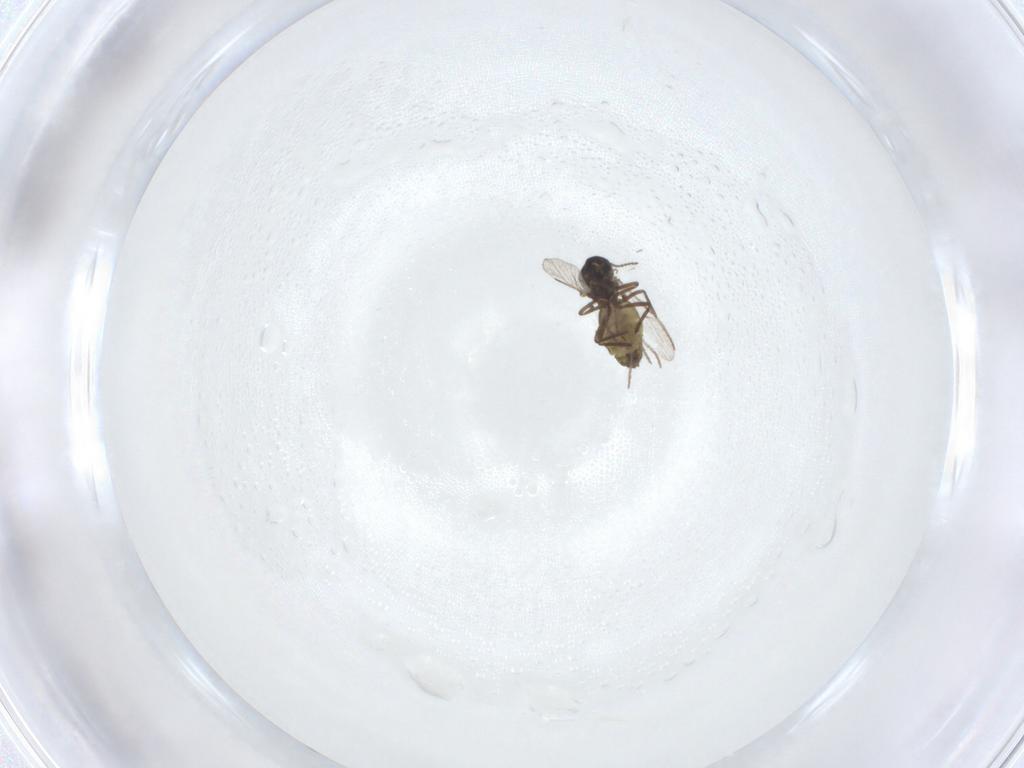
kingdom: Animalia
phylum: Arthropoda
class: Insecta
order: Diptera
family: Ceratopogonidae
